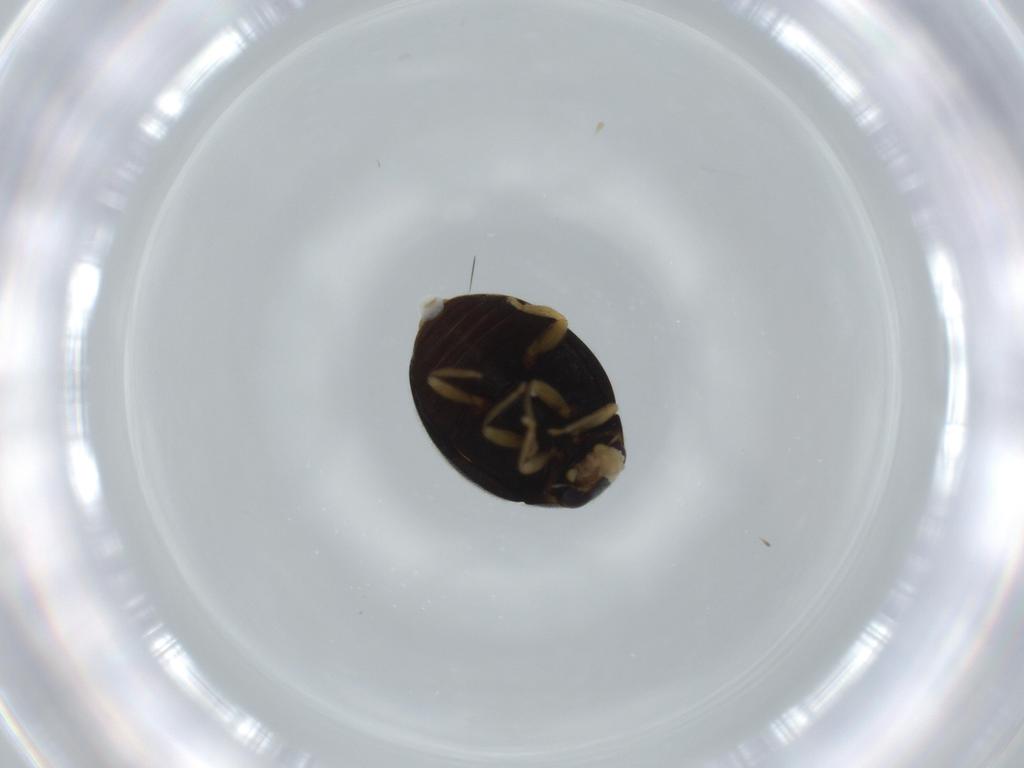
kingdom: Animalia
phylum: Arthropoda
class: Insecta
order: Coleoptera
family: Coccinellidae
